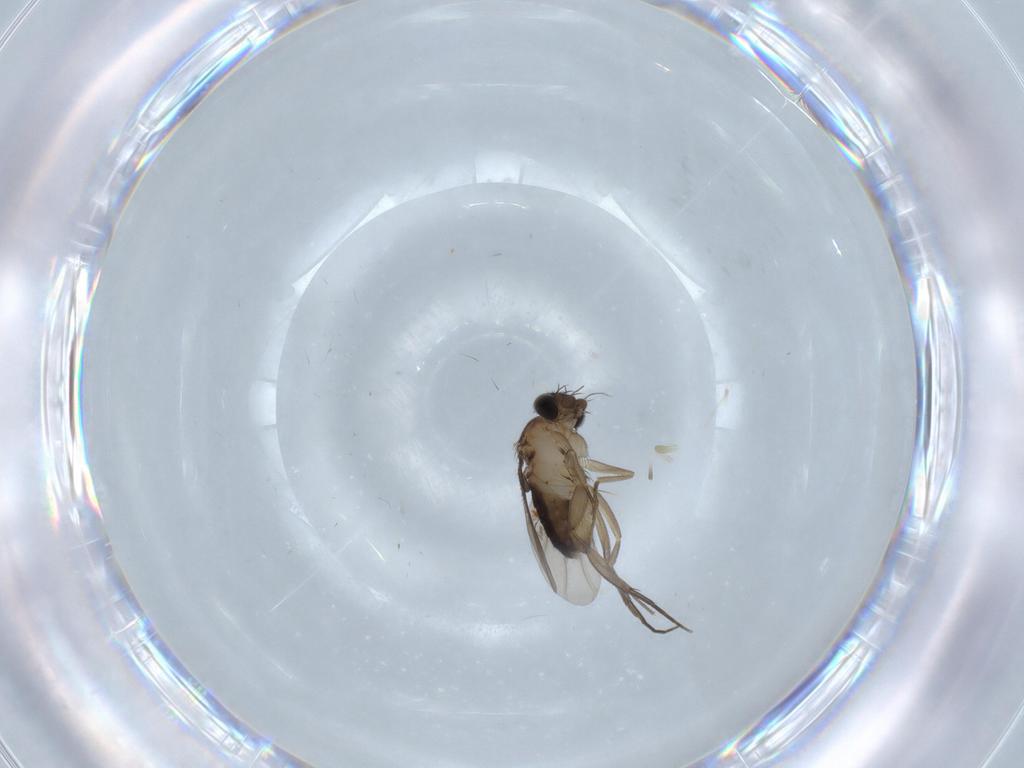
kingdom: Animalia
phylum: Arthropoda
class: Insecta
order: Diptera
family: Phoridae
